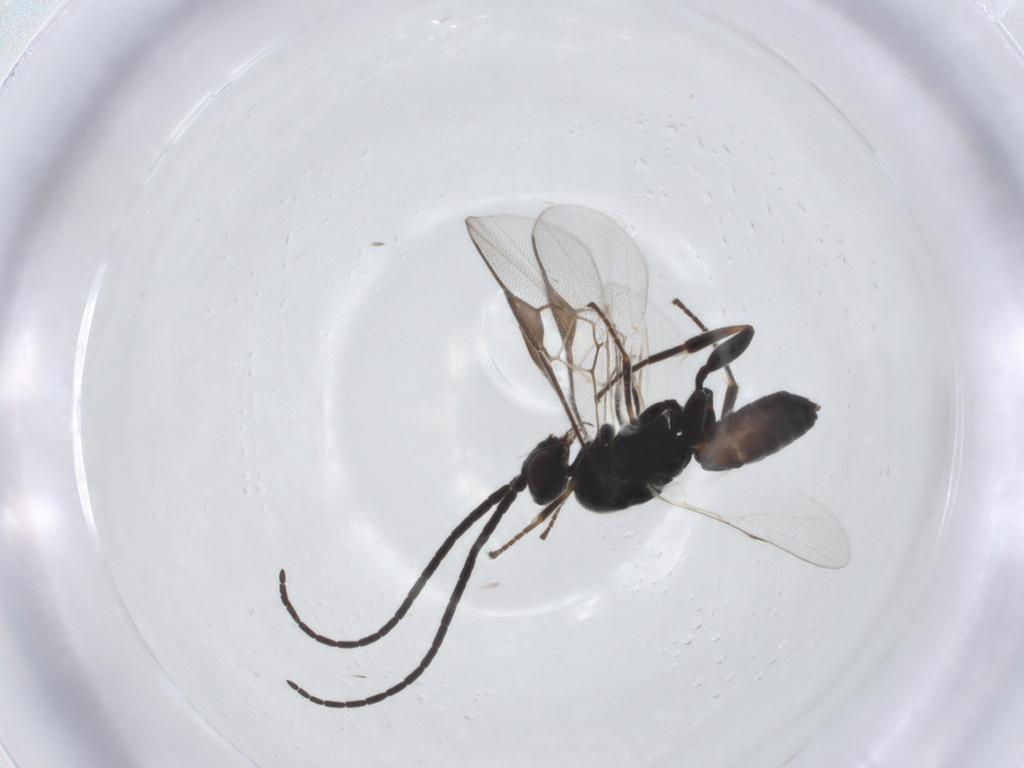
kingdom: Animalia
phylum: Arthropoda
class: Insecta
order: Hymenoptera
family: Braconidae
